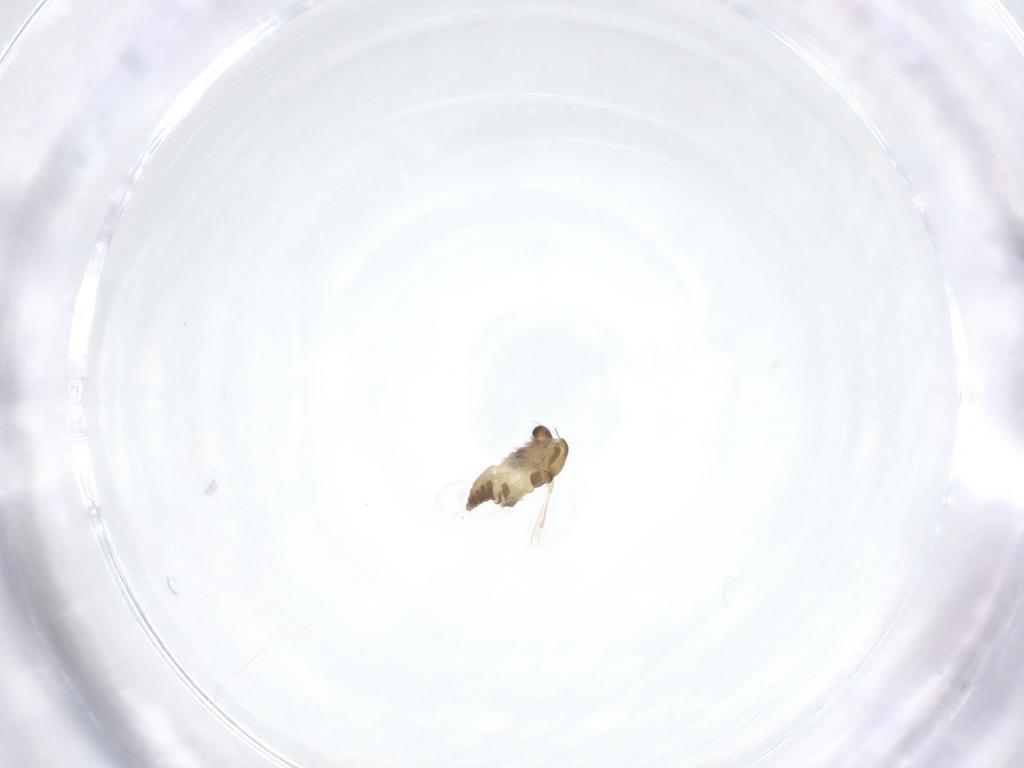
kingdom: Animalia
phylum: Arthropoda
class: Insecta
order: Diptera
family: Chironomidae
